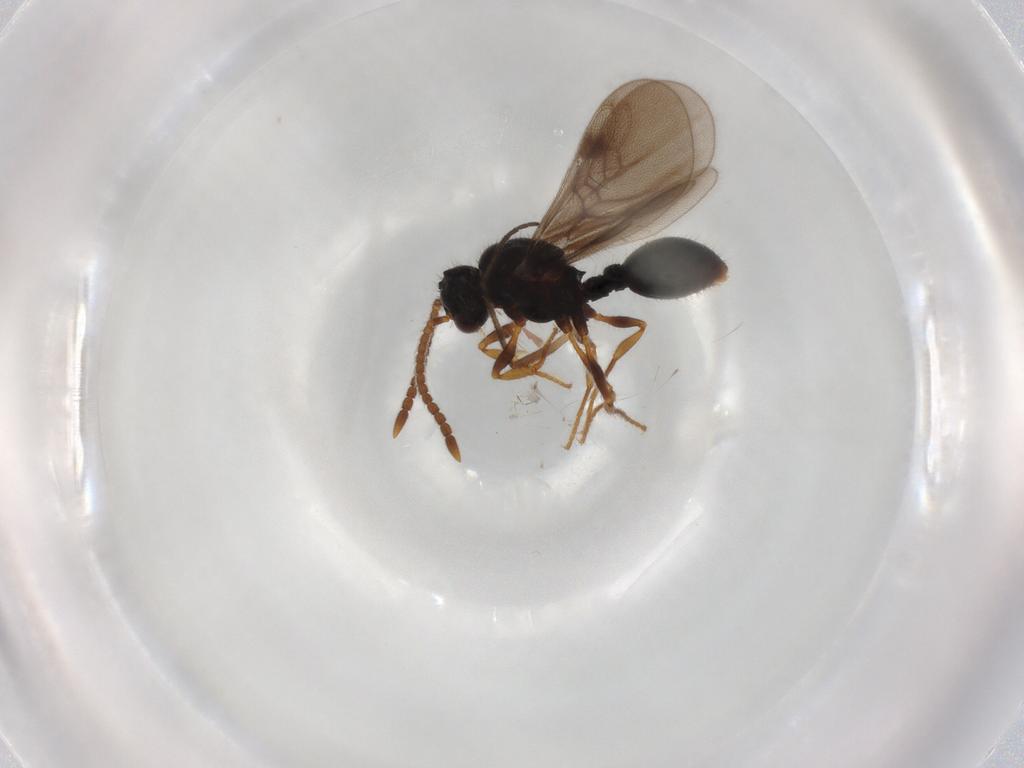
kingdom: Animalia
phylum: Arthropoda
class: Insecta
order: Hymenoptera
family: Formicidae
